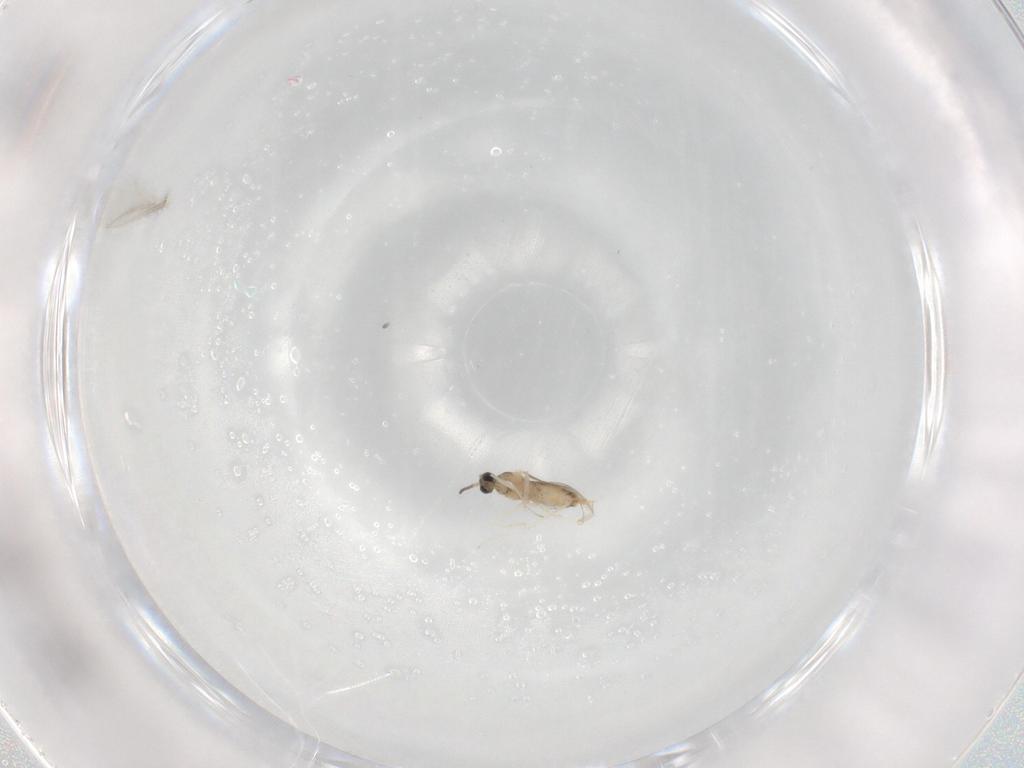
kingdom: Animalia
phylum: Arthropoda
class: Insecta
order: Diptera
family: Cecidomyiidae
